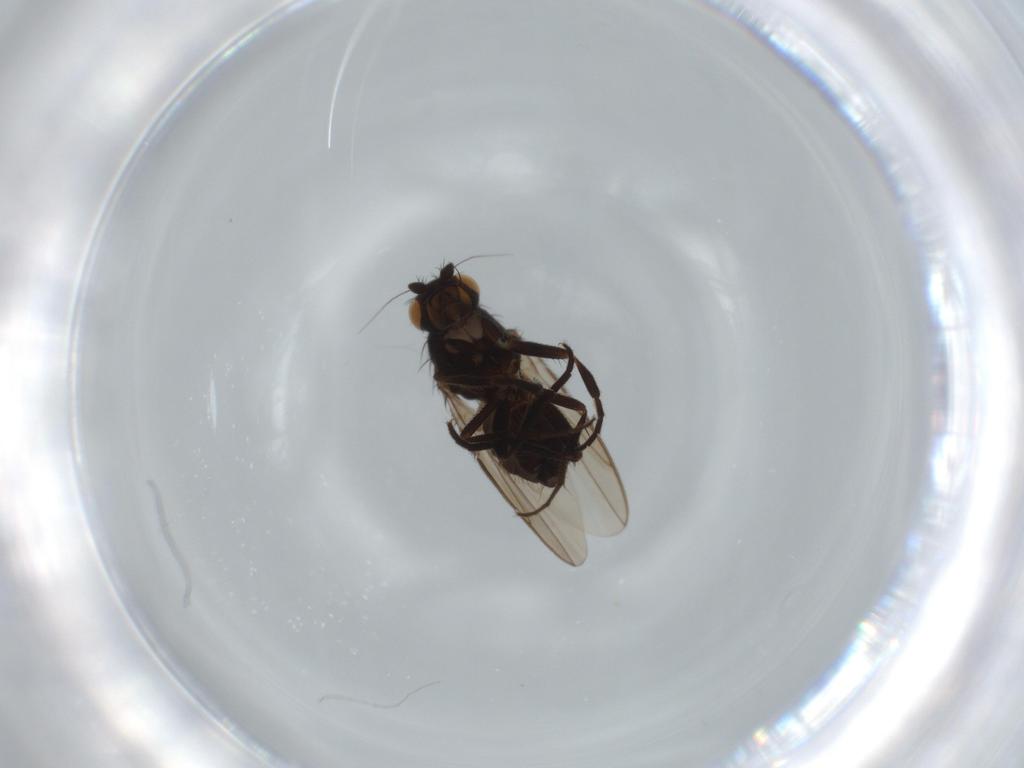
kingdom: Animalia
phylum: Arthropoda
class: Insecta
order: Diptera
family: Sphaeroceridae
